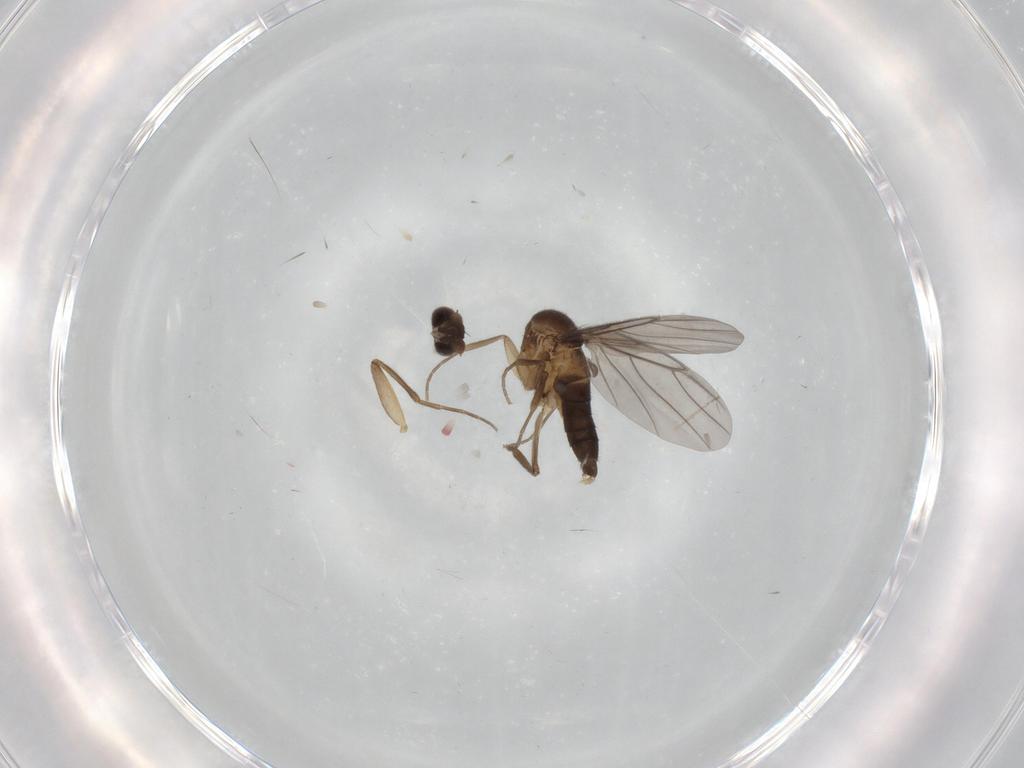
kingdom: Animalia
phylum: Arthropoda
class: Insecta
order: Diptera
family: Phoridae
